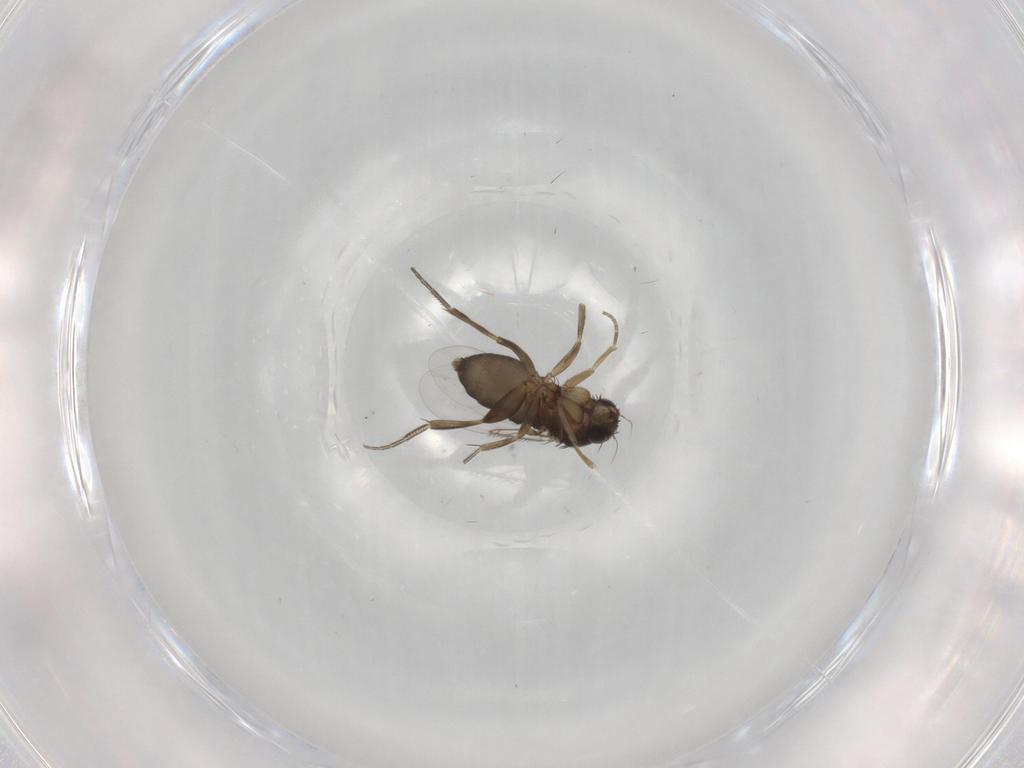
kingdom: Animalia
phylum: Arthropoda
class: Insecta
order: Diptera
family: Phoridae
